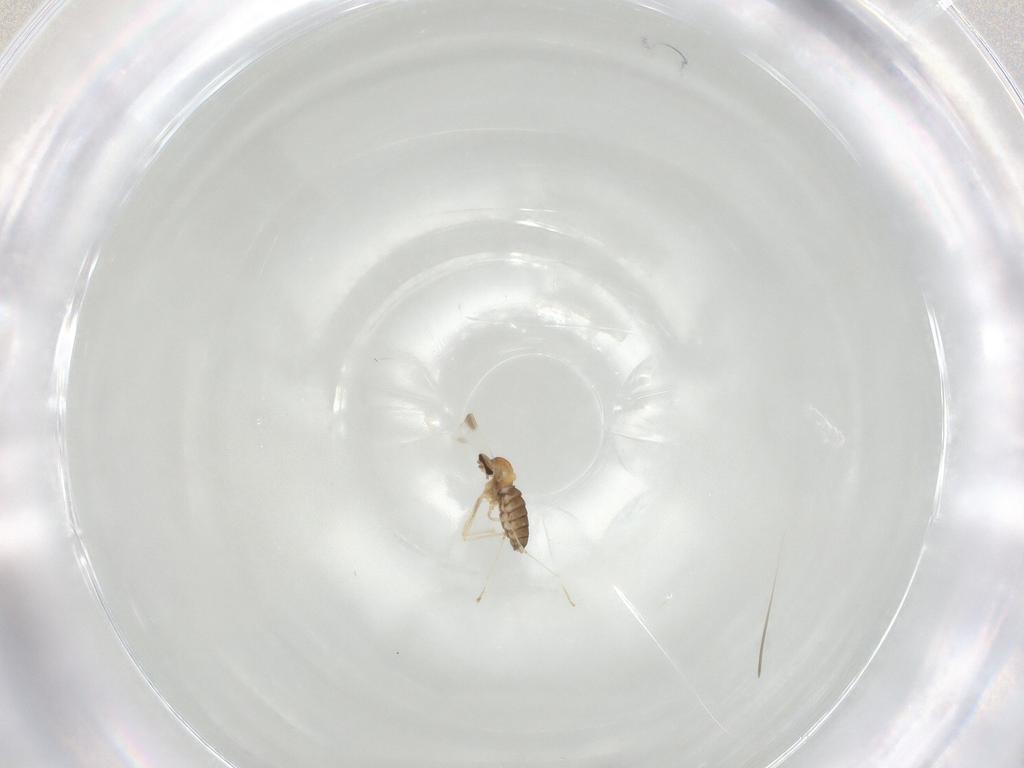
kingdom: Animalia
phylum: Arthropoda
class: Insecta
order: Diptera
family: Cecidomyiidae
